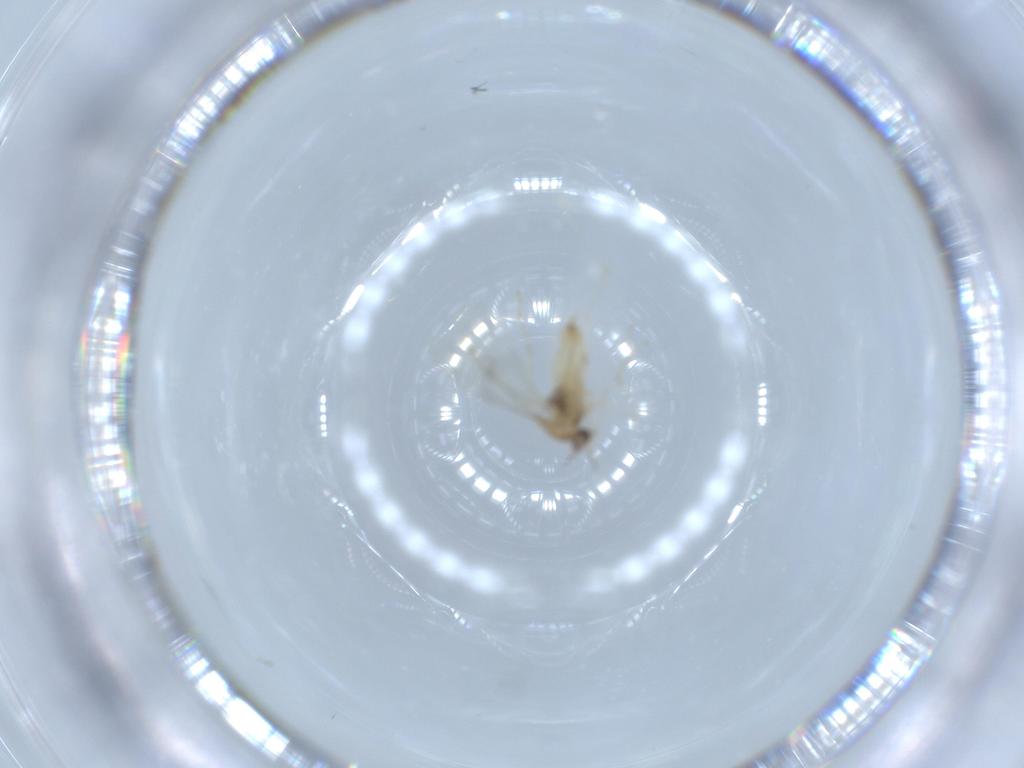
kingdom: Animalia
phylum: Arthropoda
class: Insecta
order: Diptera
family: Cecidomyiidae
